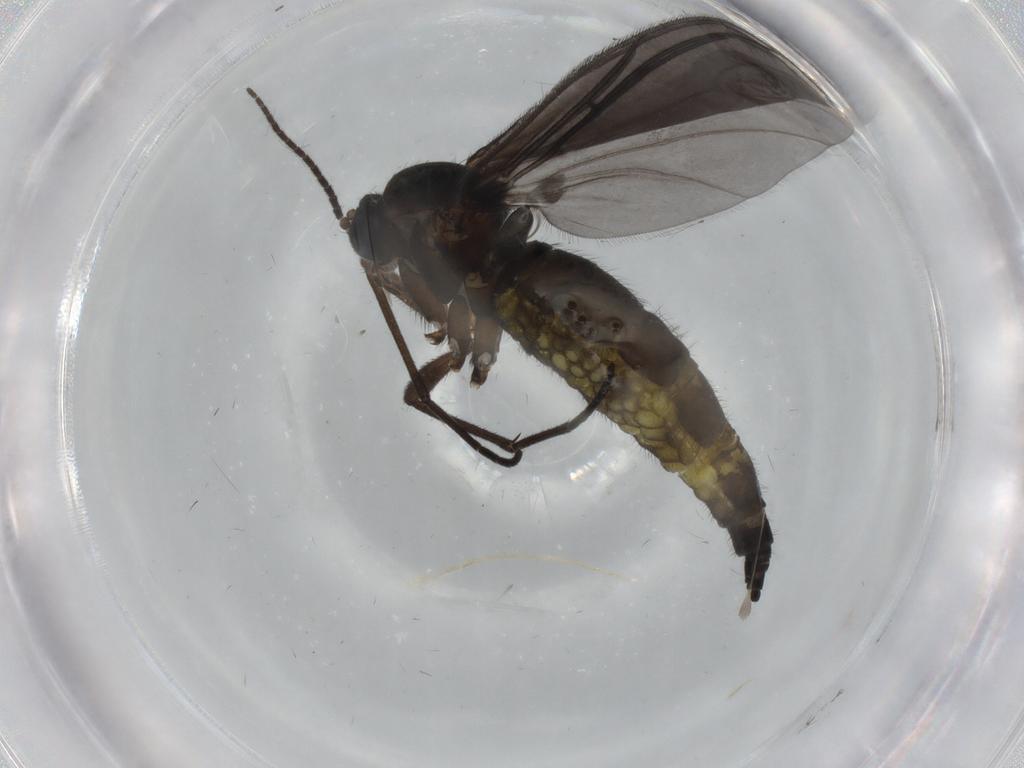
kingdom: Animalia
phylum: Arthropoda
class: Insecta
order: Diptera
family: Sciaridae
